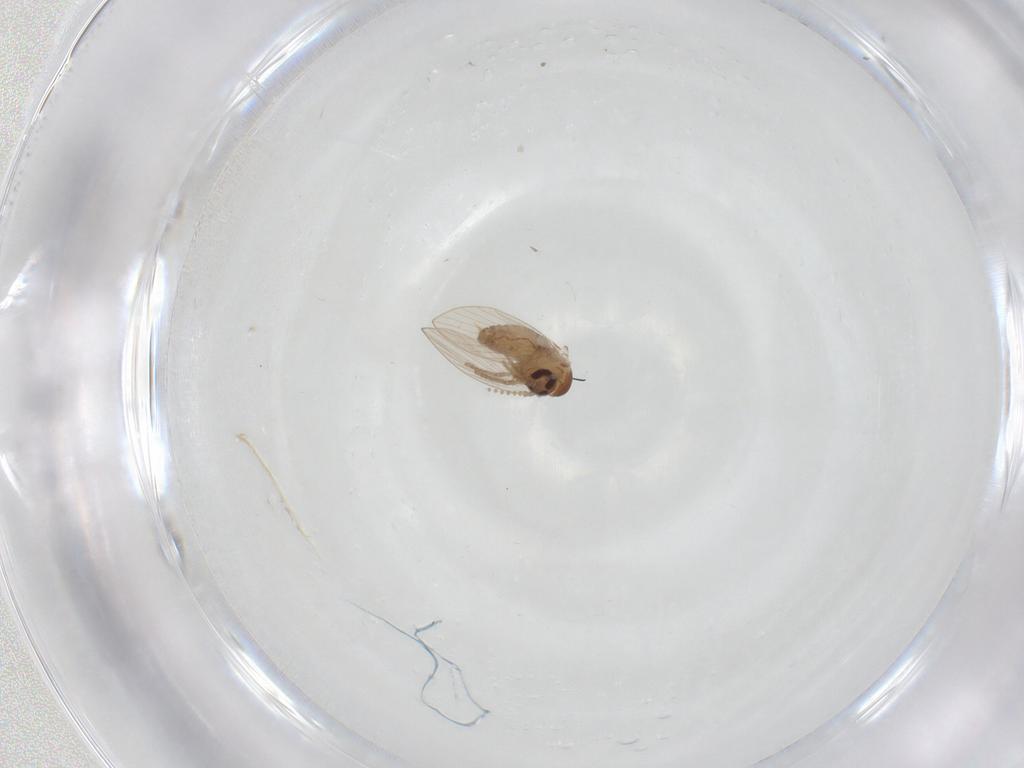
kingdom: Animalia
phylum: Arthropoda
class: Insecta
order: Diptera
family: Psychodidae
